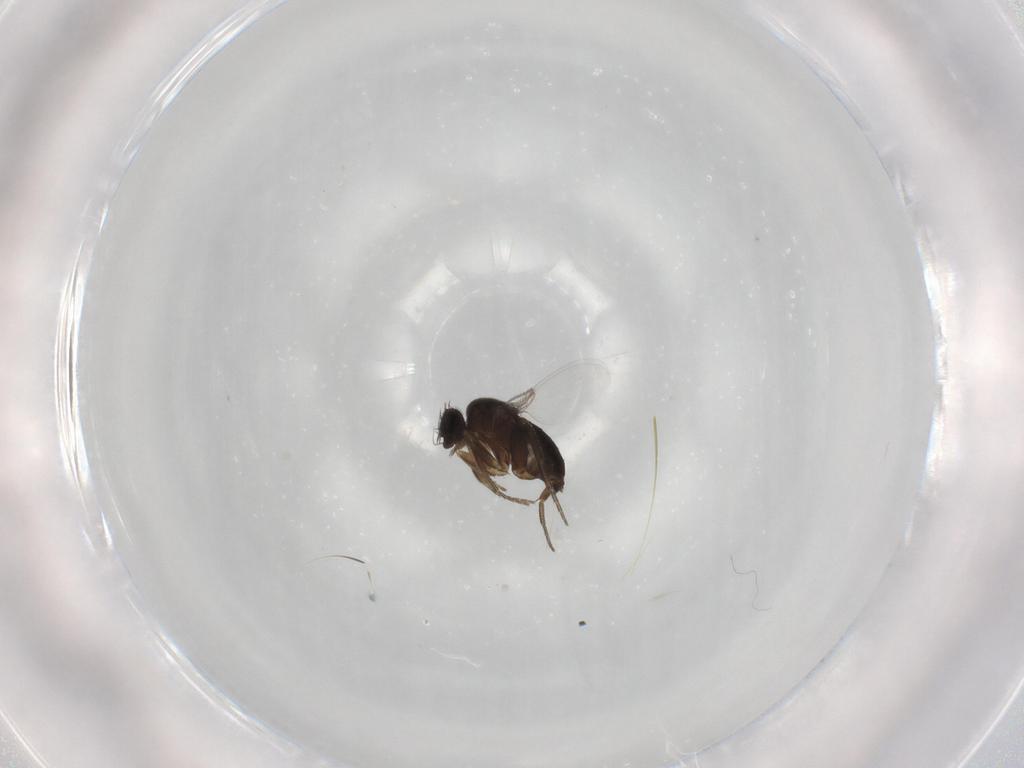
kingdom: Animalia
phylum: Arthropoda
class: Insecta
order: Diptera
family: Phoridae
